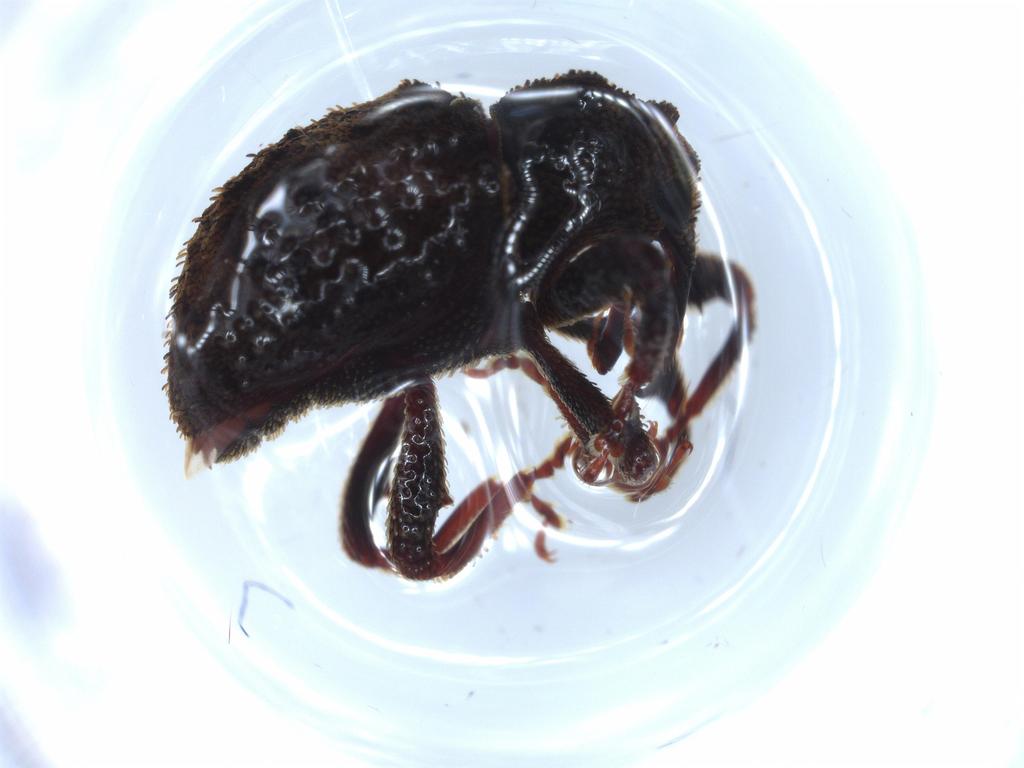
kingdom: Animalia
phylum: Arthropoda
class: Insecta
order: Coleoptera
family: Curculionidae
